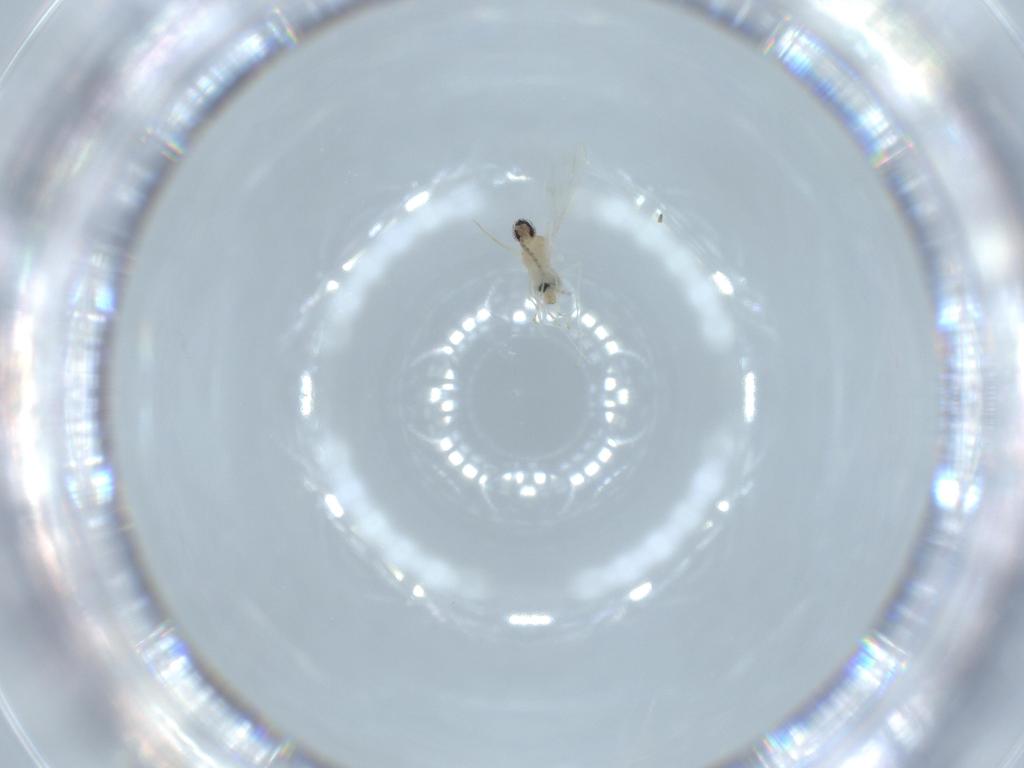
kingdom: Animalia
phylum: Arthropoda
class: Insecta
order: Diptera
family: Cecidomyiidae
